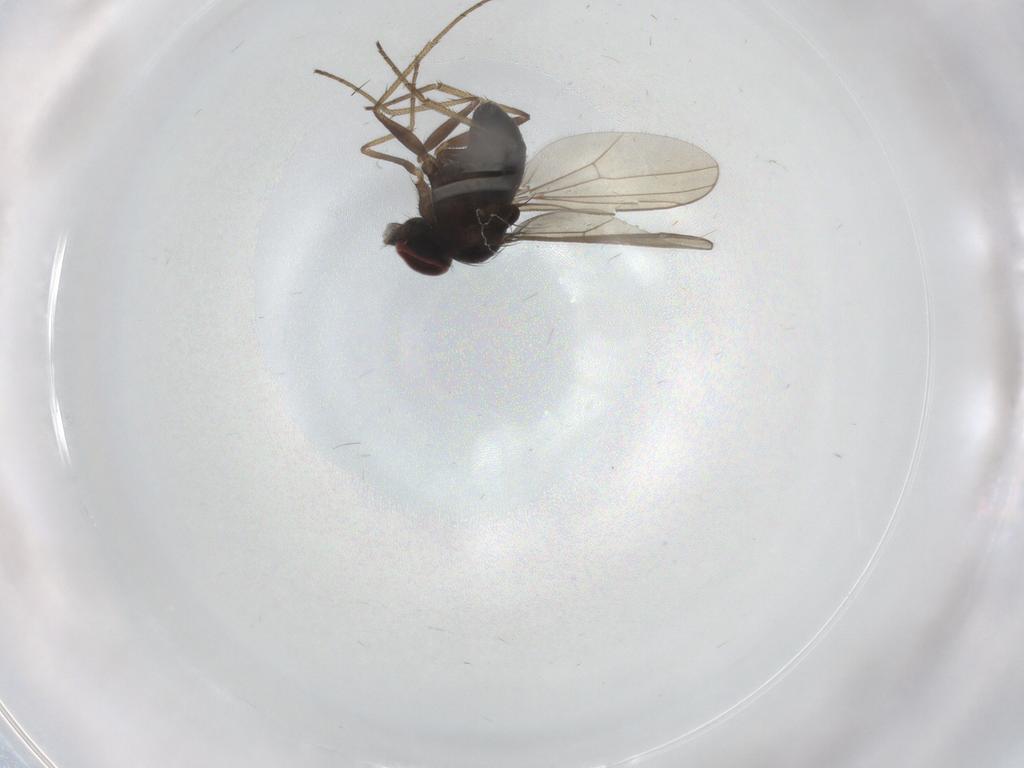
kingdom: Animalia
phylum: Arthropoda
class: Insecta
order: Diptera
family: Dolichopodidae
